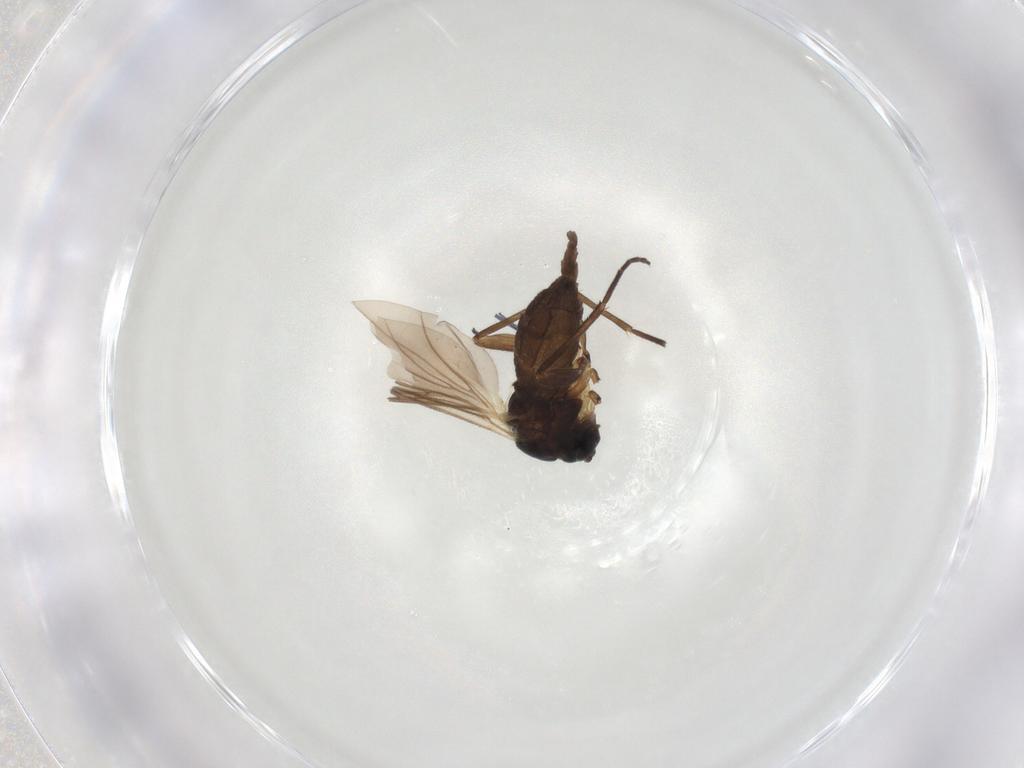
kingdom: Animalia
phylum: Arthropoda
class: Insecta
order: Diptera
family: Sciaridae
